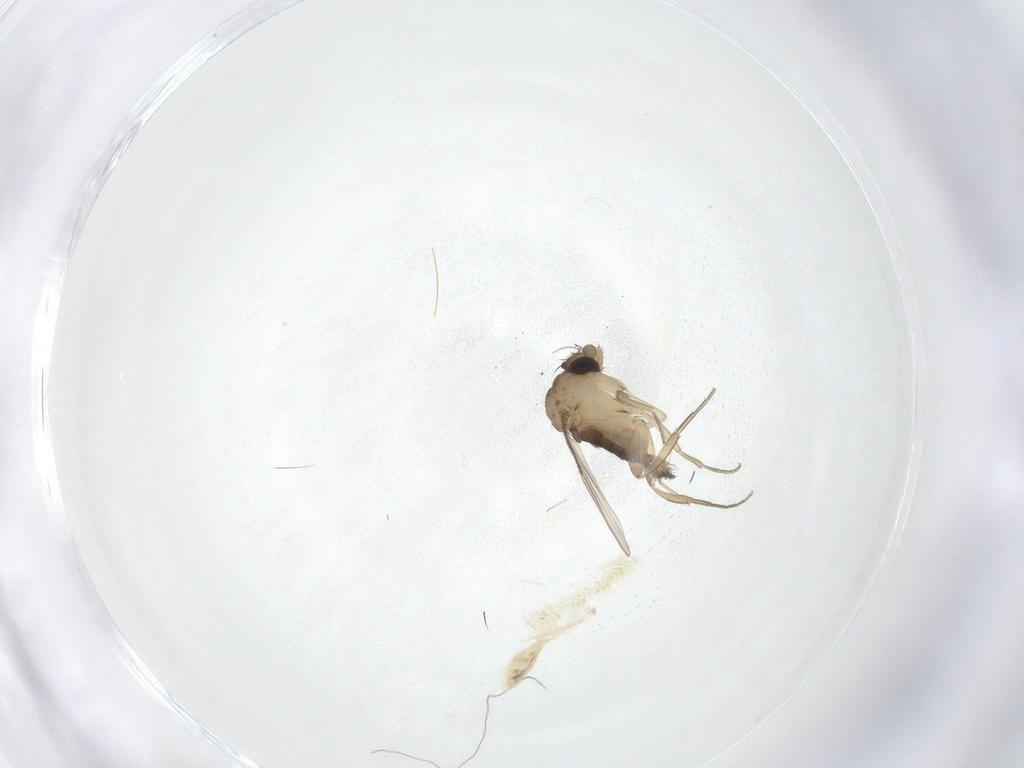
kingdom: Animalia
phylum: Arthropoda
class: Insecta
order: Diptera
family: Phoridae
